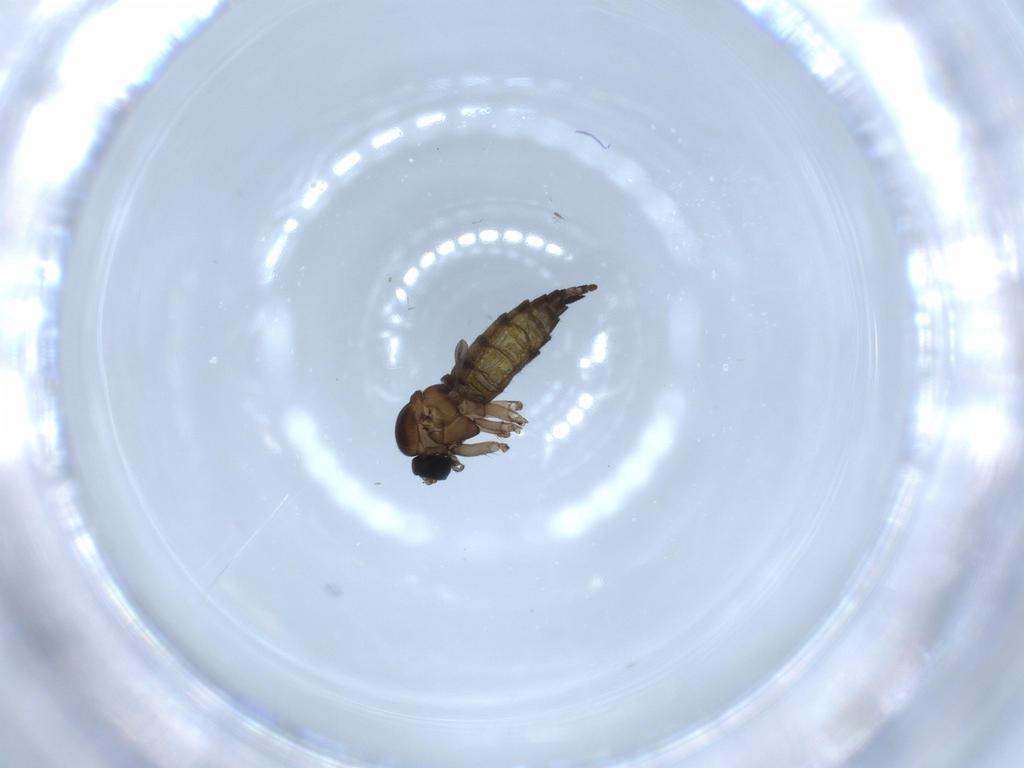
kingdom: Animalia
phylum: Arthropoda
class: Insecta
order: Diptera
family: Sciaridae
